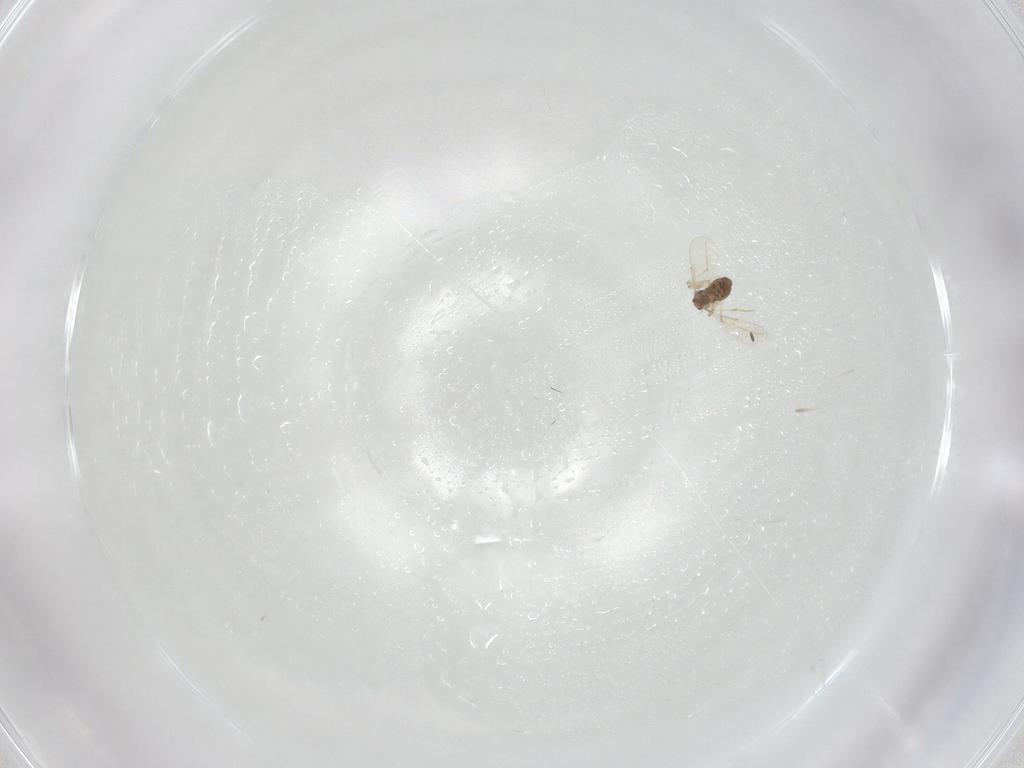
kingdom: Animalia
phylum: Arthropoda
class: Insecta
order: Diptera
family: Chironomidae
